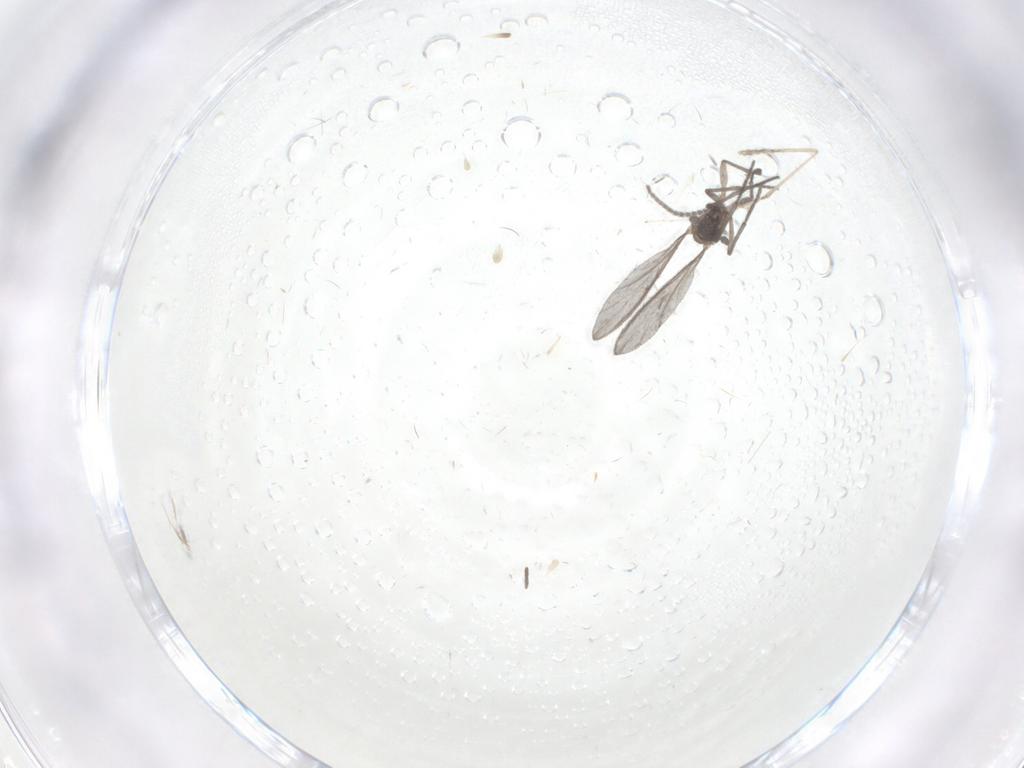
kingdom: Animalia
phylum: Arthropoda
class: Insecta
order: Diptera
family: Sciaridae
